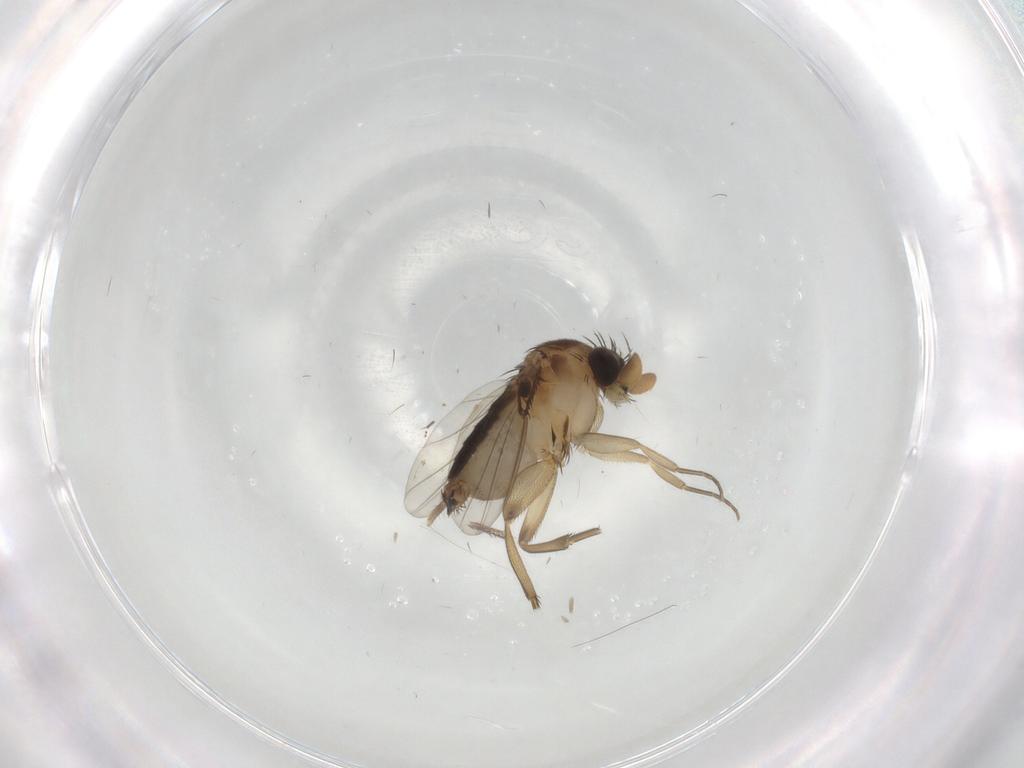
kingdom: Animalia
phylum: Arthropoda
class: Insecta
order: Diptera
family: Mycetophilidae
